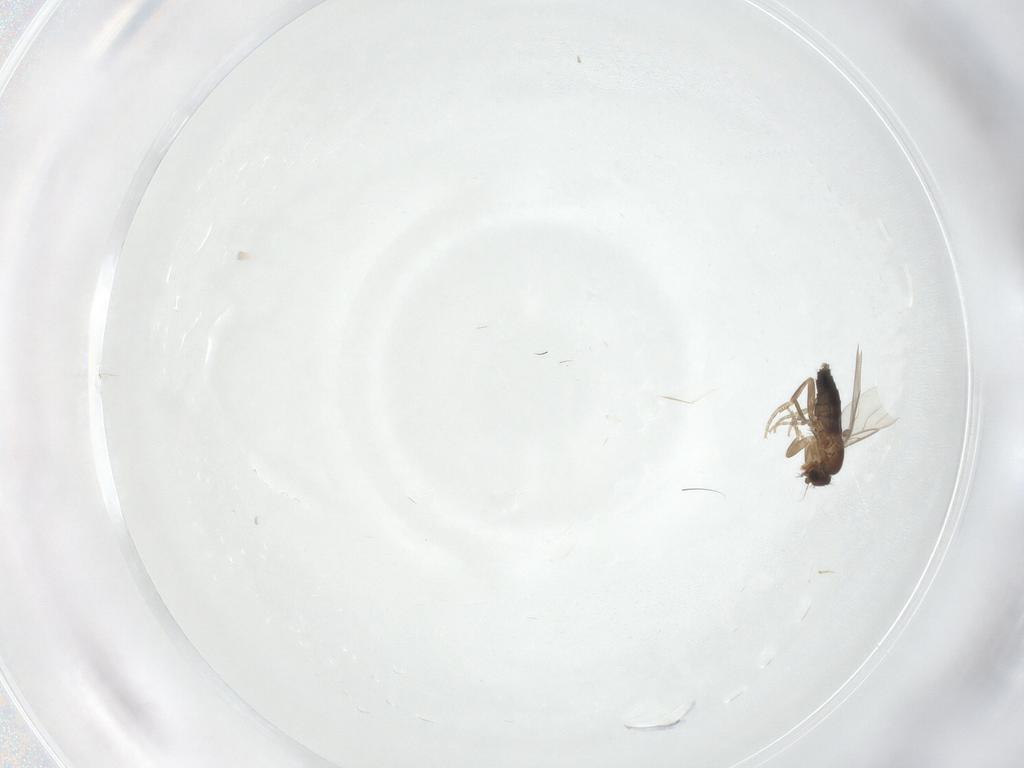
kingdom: Animalia
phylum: Arthropoda
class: Insecta
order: Diptera
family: Phoridae
